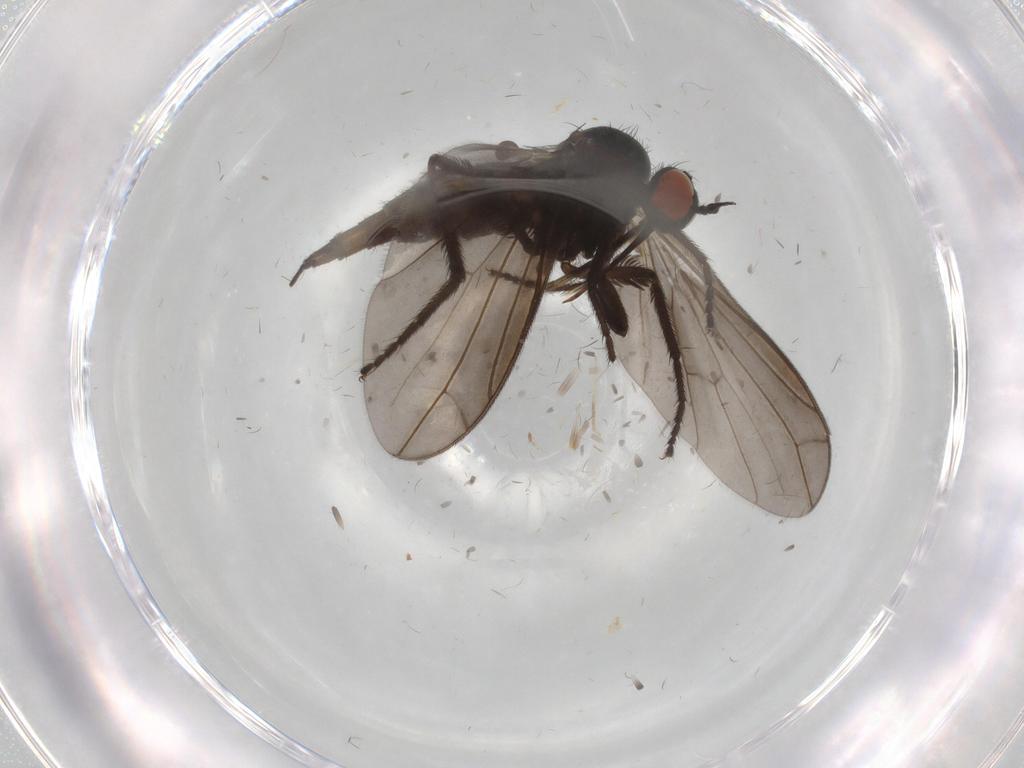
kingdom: Animalia
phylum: Arthropoda
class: Insecta
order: Diptera
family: Empididae
